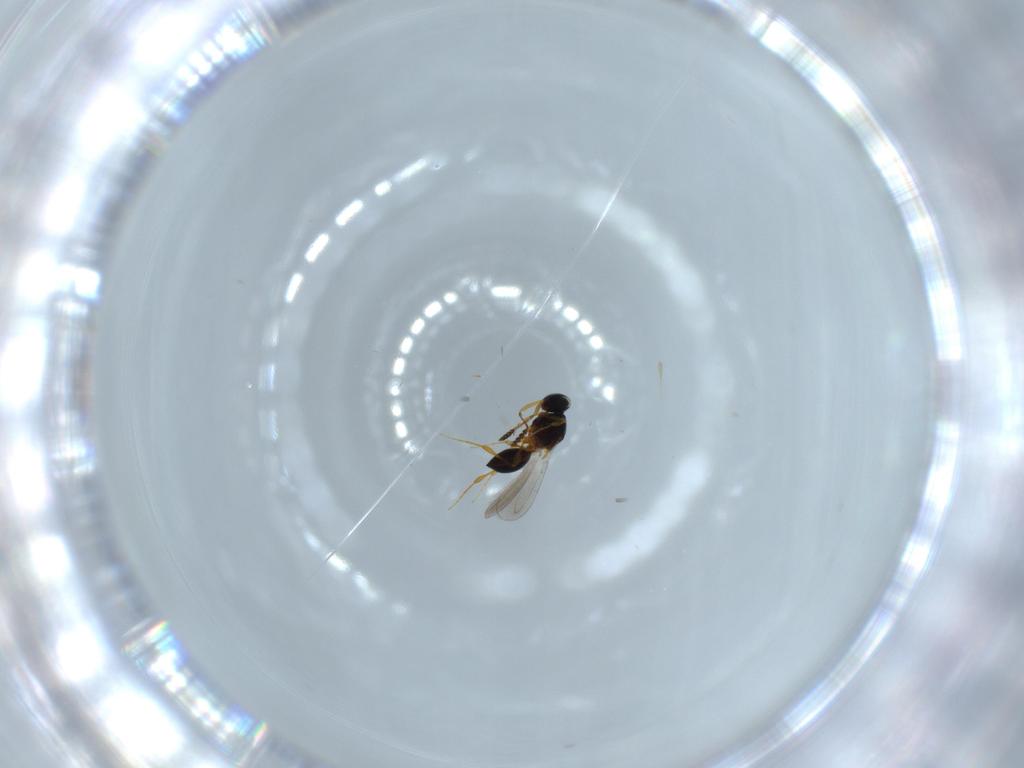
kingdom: Animalia
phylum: Arthropoda
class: Insecta
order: Hymenoptera
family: Platygastridae
